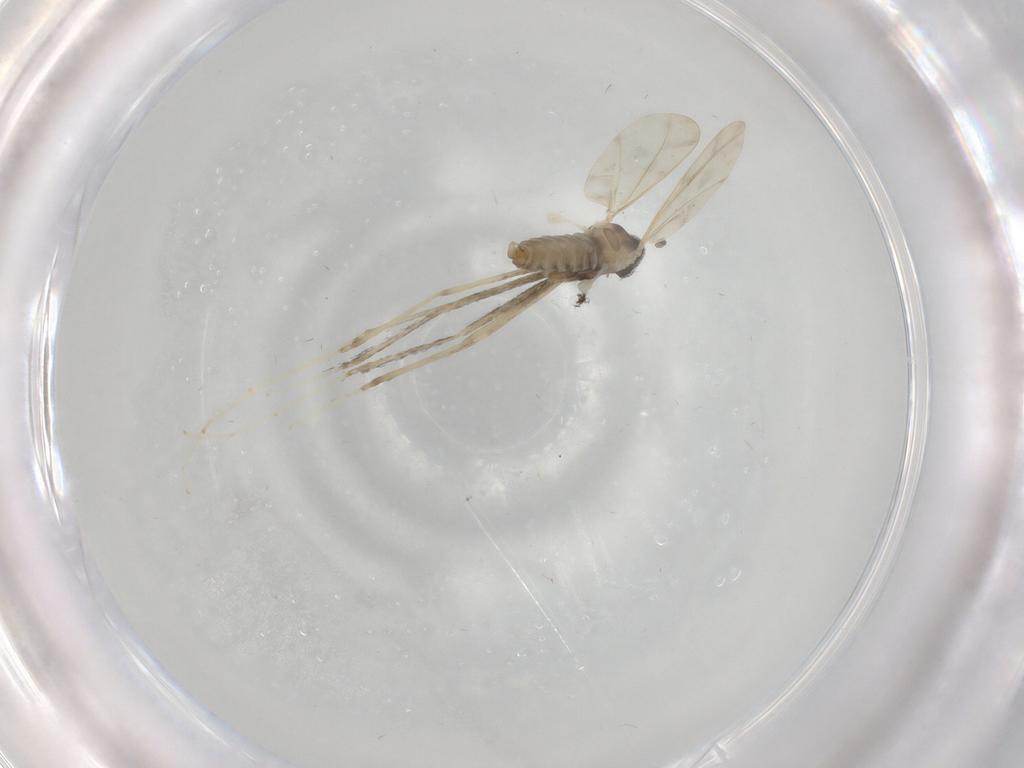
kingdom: Animalia
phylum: Arthropoda
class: Insecta
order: Diptera
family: Cecidomyiidae
